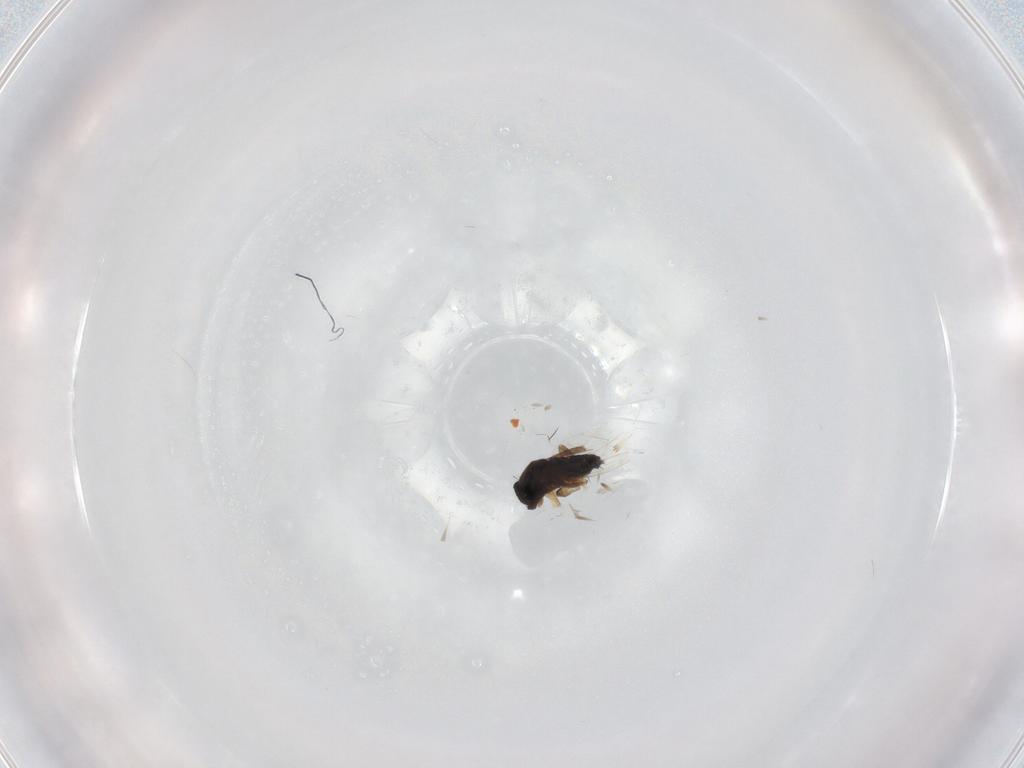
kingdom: Animalia
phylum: Arthropoda
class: Insecta
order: Diptera
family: Phoridae
